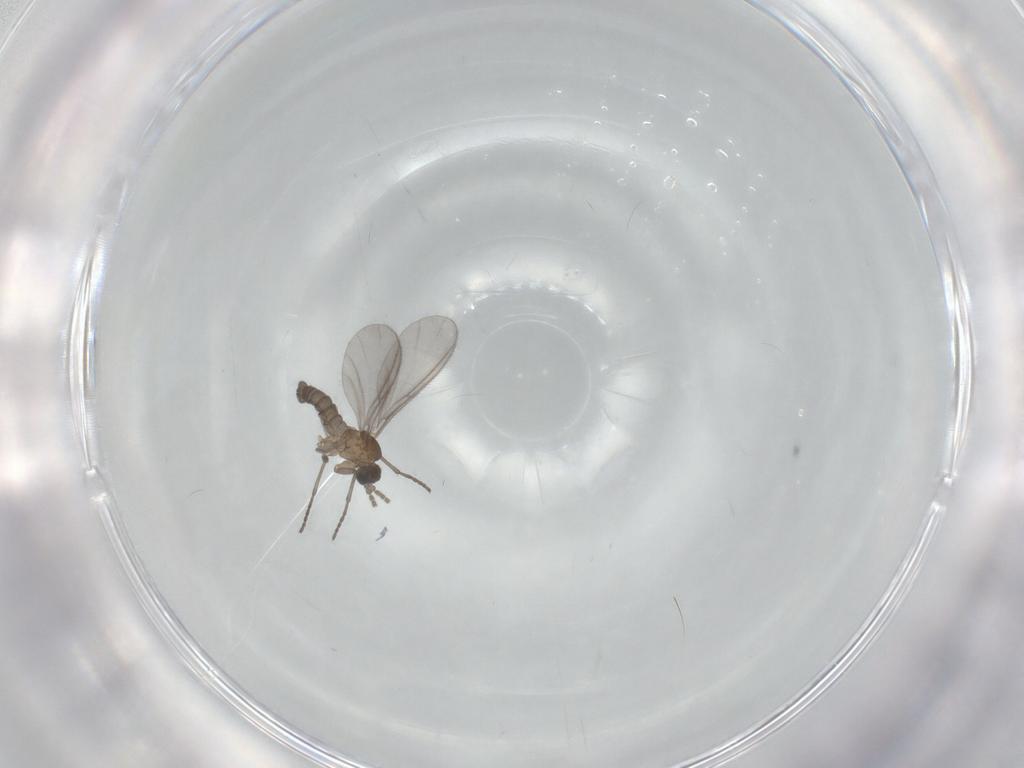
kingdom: Animalia
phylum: Arthropoda
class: Insecta
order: Diptera
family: Sciaridae
